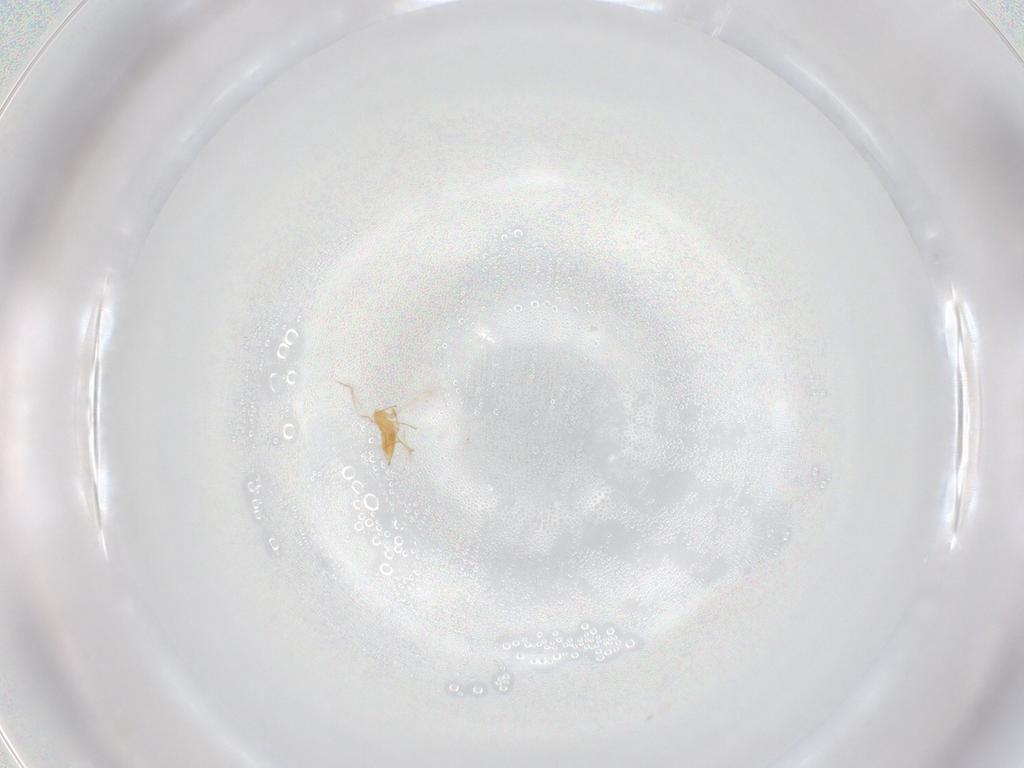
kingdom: Animalia
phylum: Arthropoda
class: Insecta
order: Hymenoptera
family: Mymaridae
